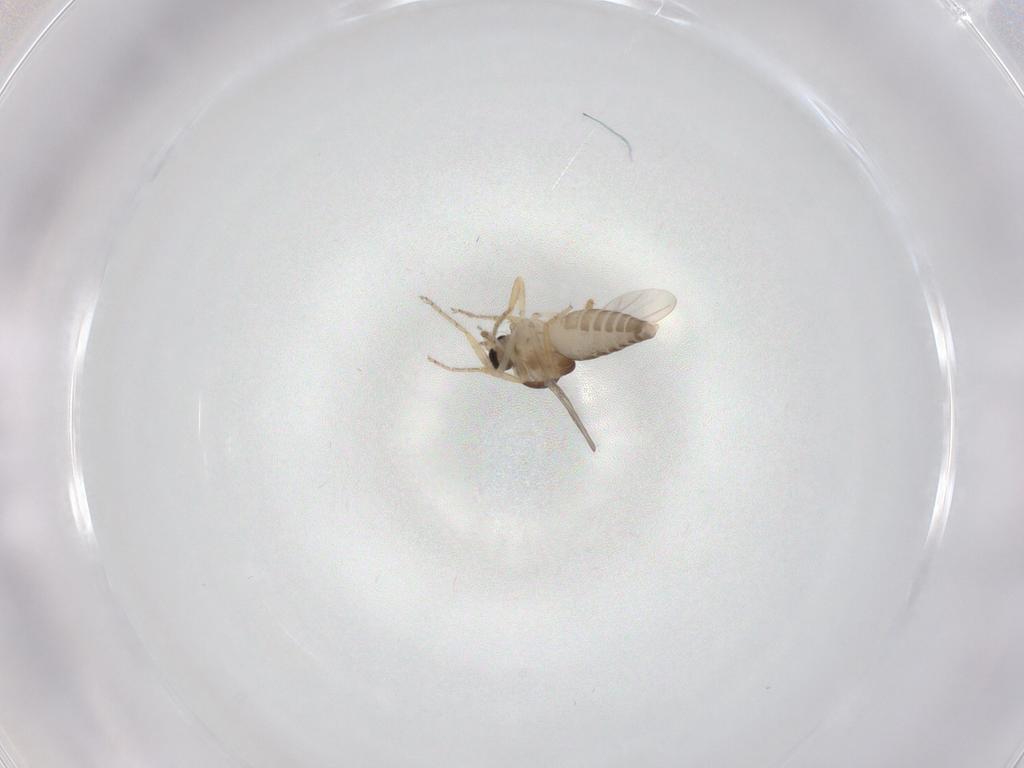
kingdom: Animalia
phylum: Arthropoda
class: Insecta
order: Diptera
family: Ceratopogonidae
